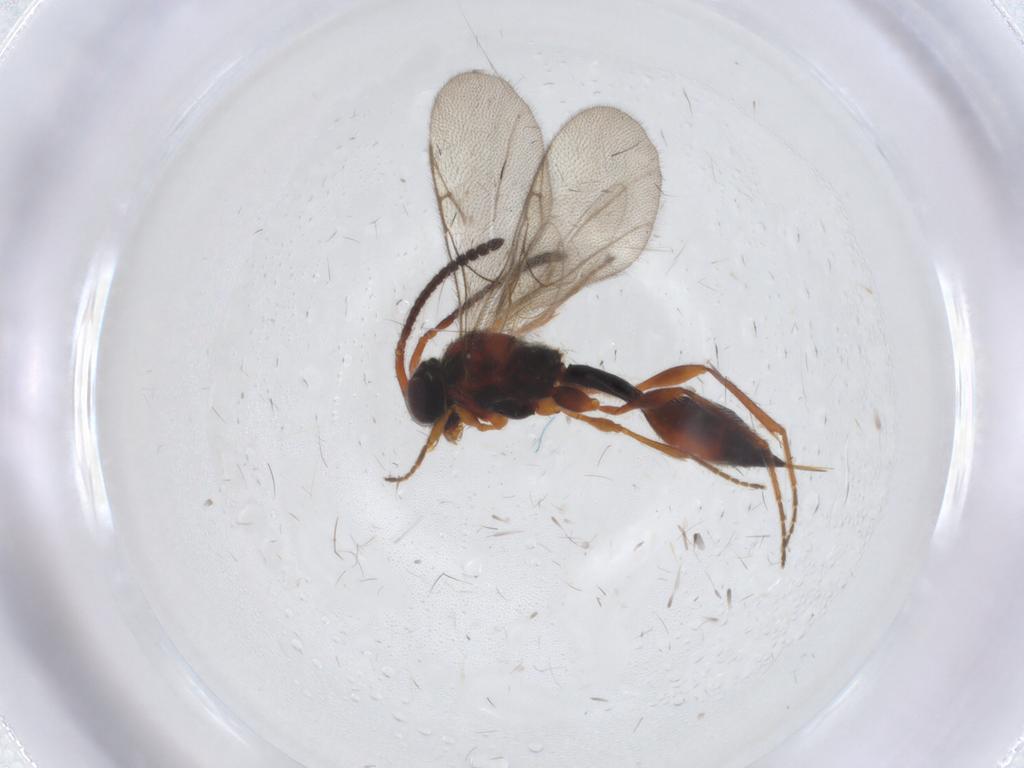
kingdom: Animalia
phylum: Arthropoda
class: Insecta
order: Hymenoptera
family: Diapriidae
